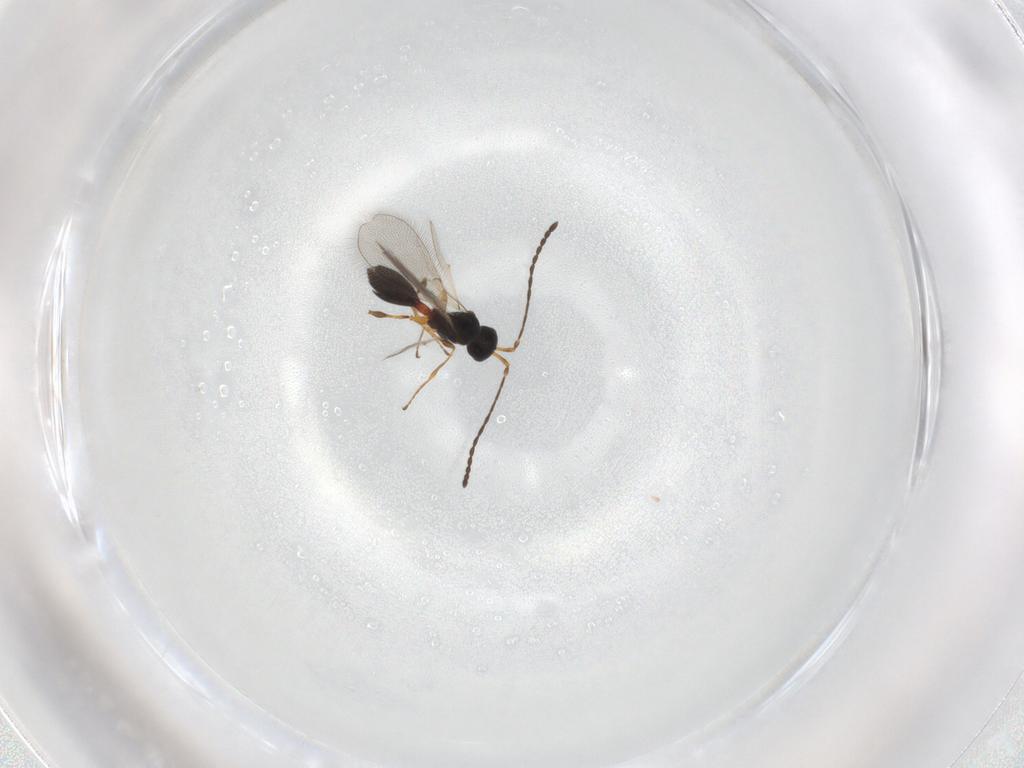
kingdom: Animalia
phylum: Arthropoda
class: Insecta
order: Hymenoptera
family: Diapriidae
